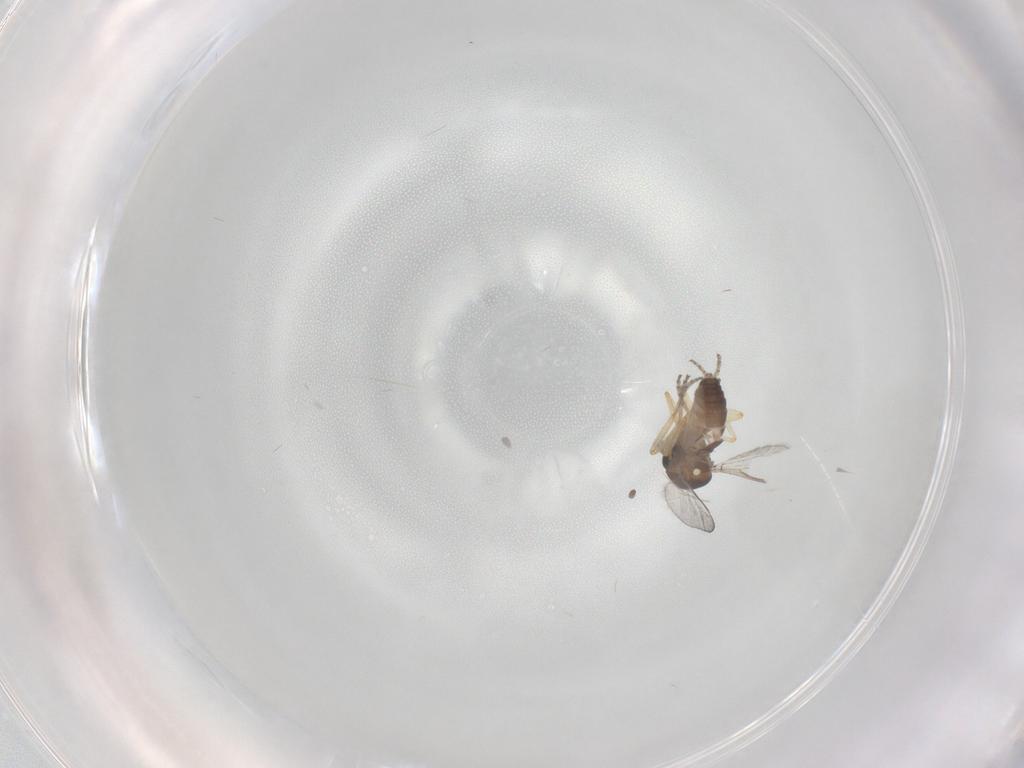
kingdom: Animalia
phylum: Arthropoda
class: Insecta
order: Diptera
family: Ceratopogonidae
